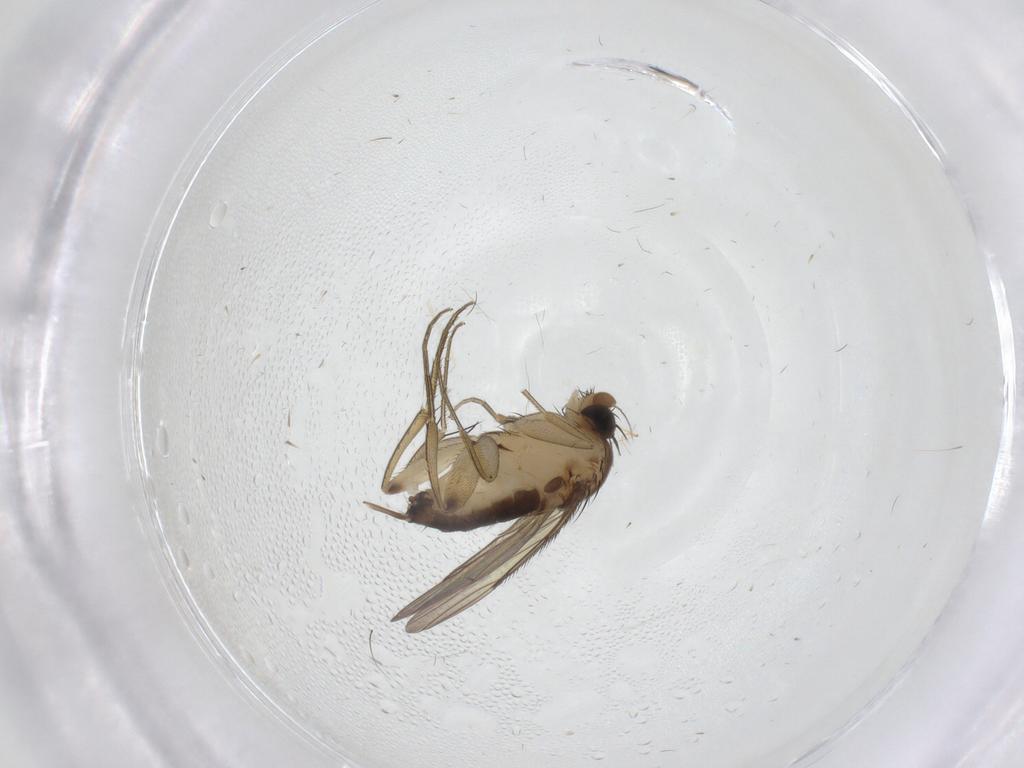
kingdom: Animalia
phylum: Arthropoda
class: Insecta
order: Diptera
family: Phoridae
